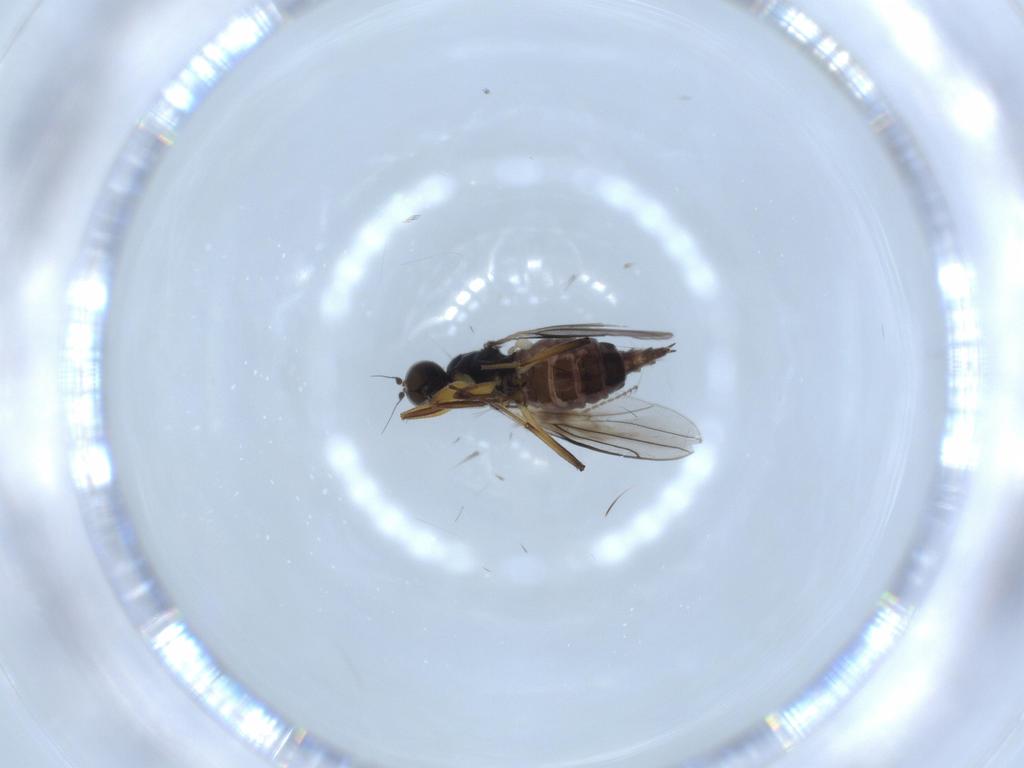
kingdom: Animalia
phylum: Arthropoda
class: Insecta
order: Diptera
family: Hybotidae
